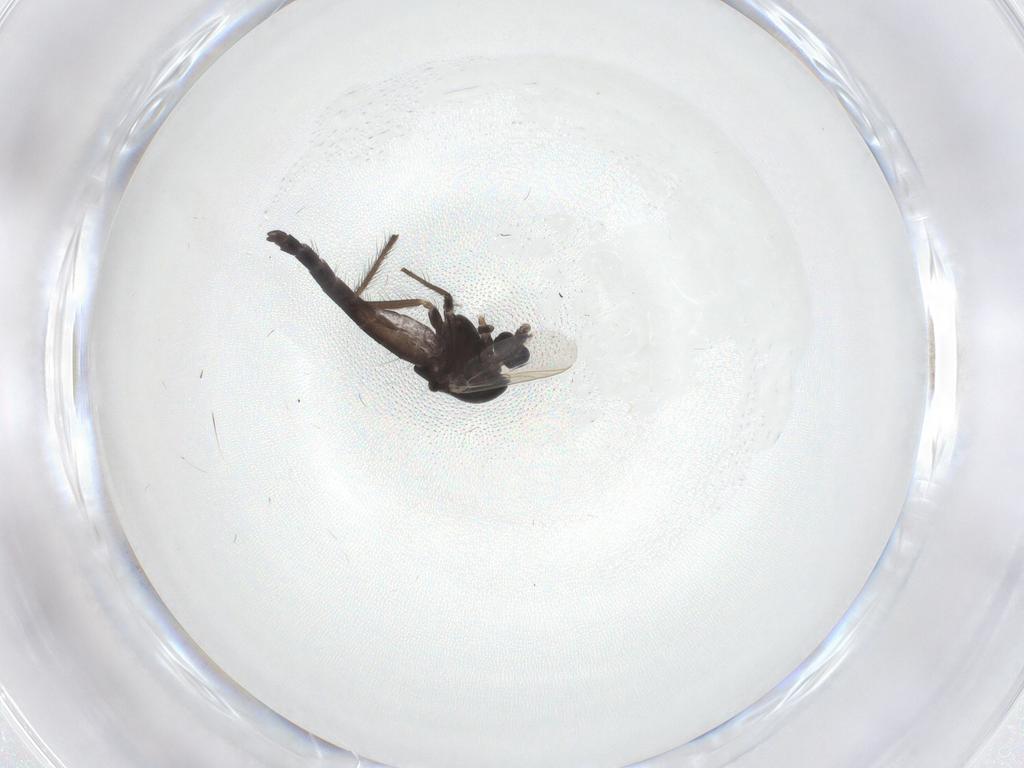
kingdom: Animalia
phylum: Arthropoda
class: Insecta
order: Diptera
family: Chironomidae
